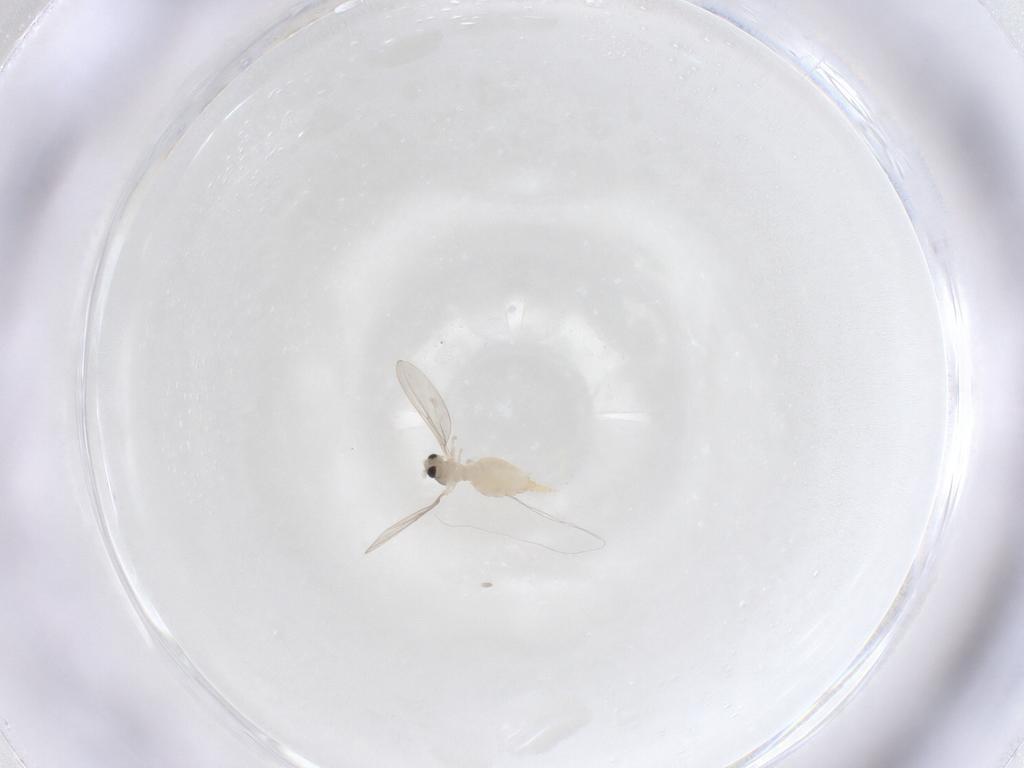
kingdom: Animalia
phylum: Arthropoda
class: Insecta
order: Diptera
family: Cecidomyiidae
